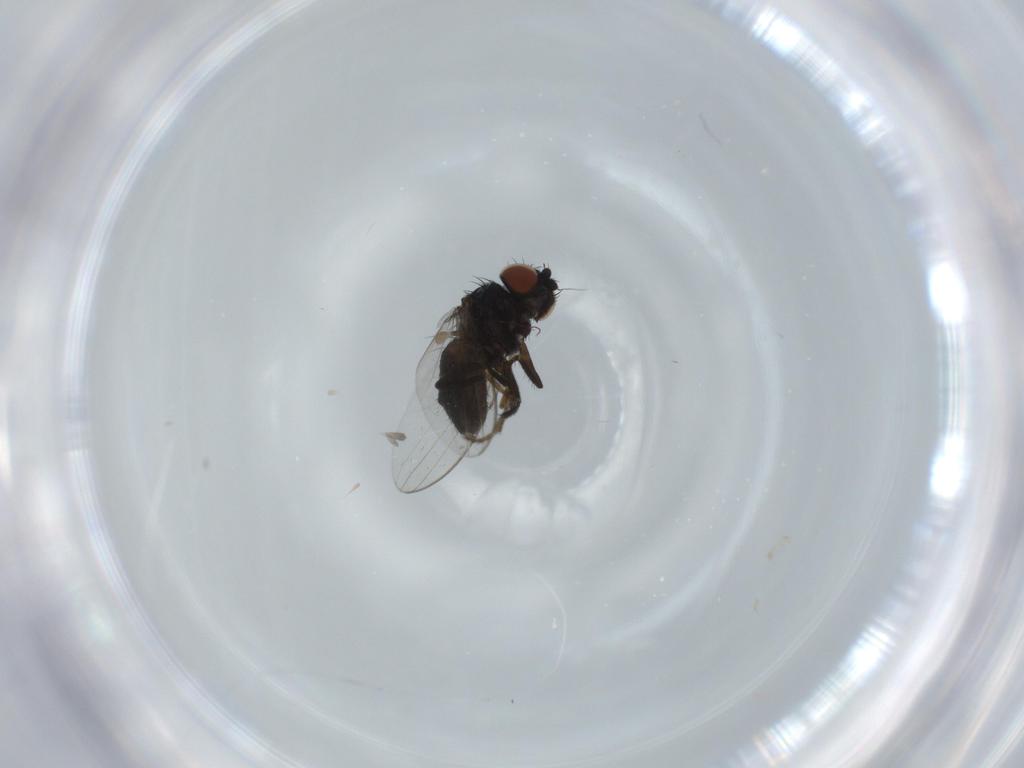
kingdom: Animalia
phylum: Arthropoda
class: Insecta
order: Diptera
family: Milichiidae
